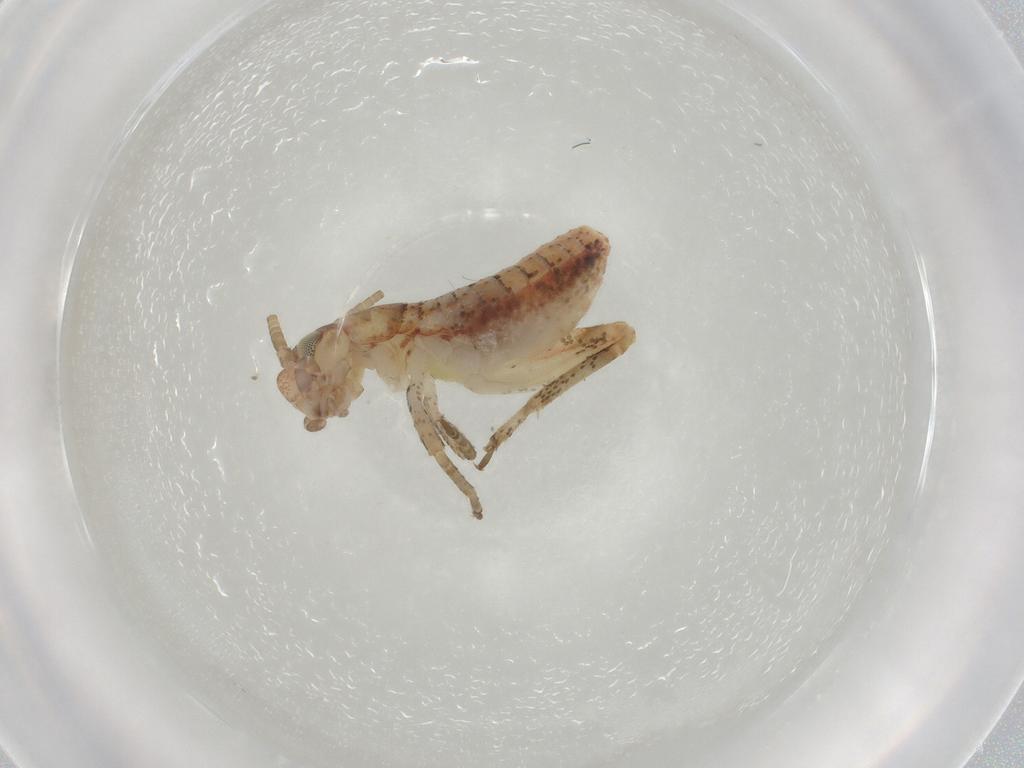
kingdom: Animalia
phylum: Arthropoda
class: Insecta
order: Orthoptera
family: Mogoplistidae
